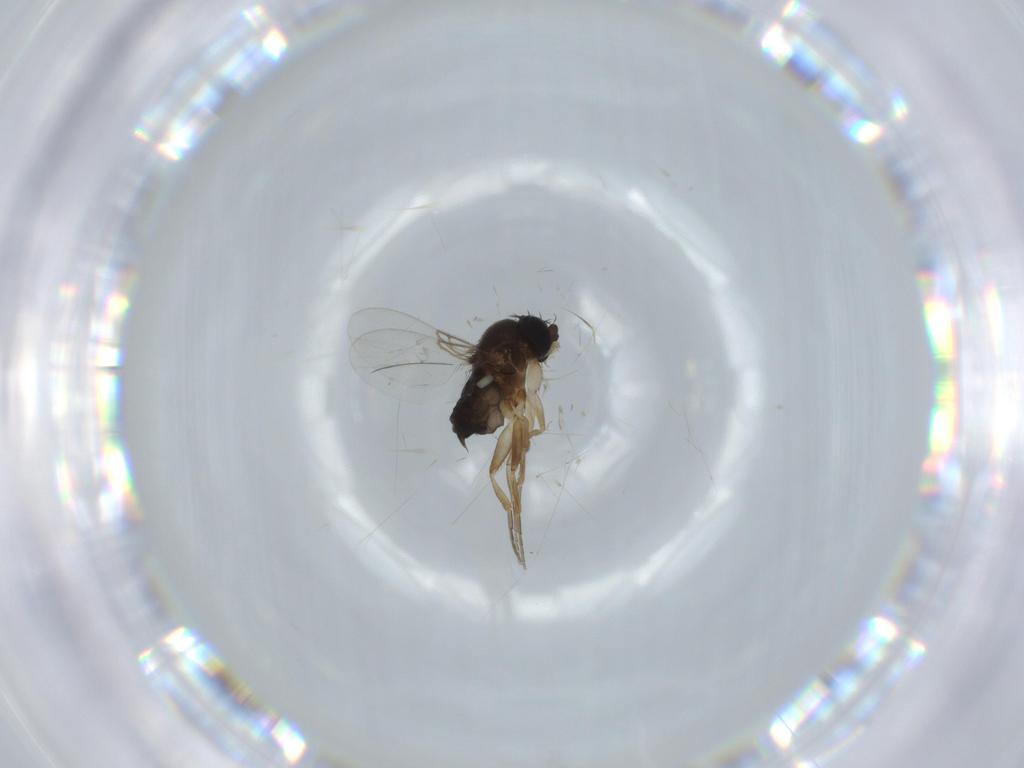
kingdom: Animalia
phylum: Arthropoda
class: Insecta
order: Diptera
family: Phoridae
